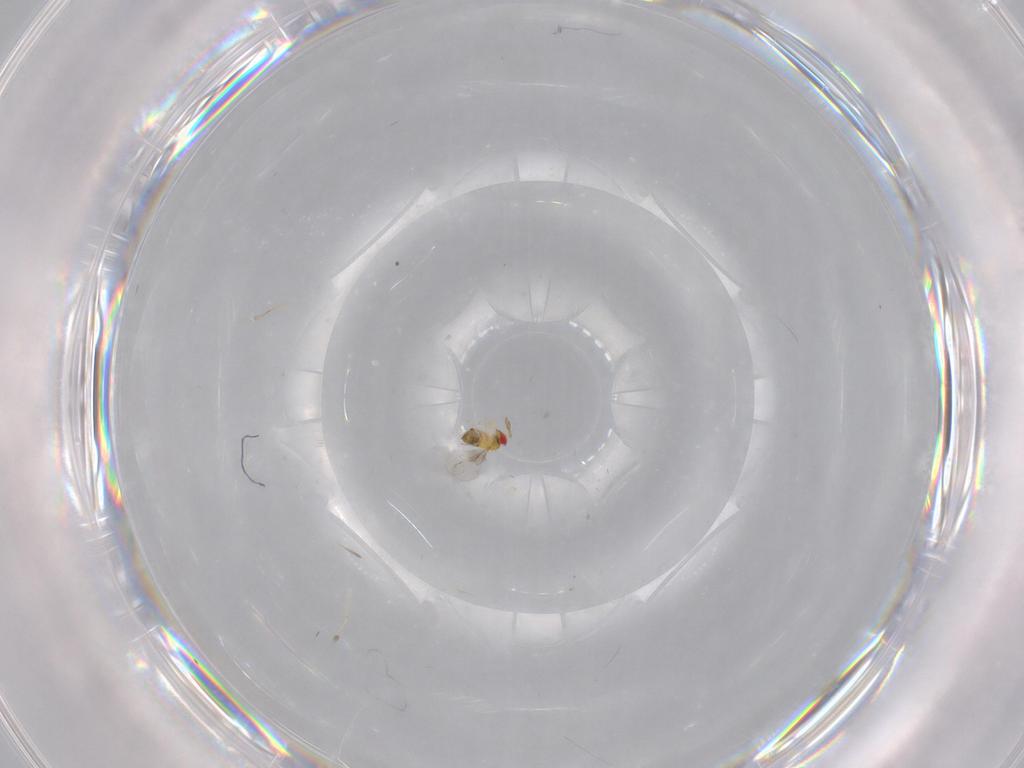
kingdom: Animalia
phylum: Arthropoda
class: Insecta
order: Hymenoptera
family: Trichogrammatidae
